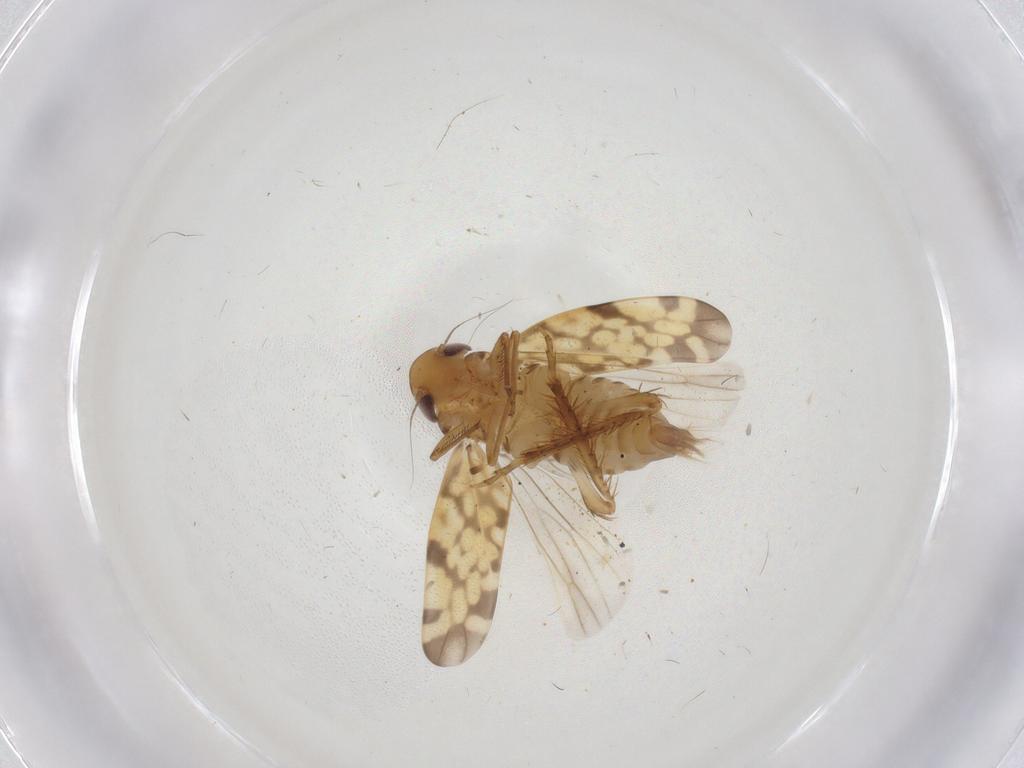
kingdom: Animalia
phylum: Arthropoda
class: Insecta
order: Hemiptera
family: Cicadellidae
